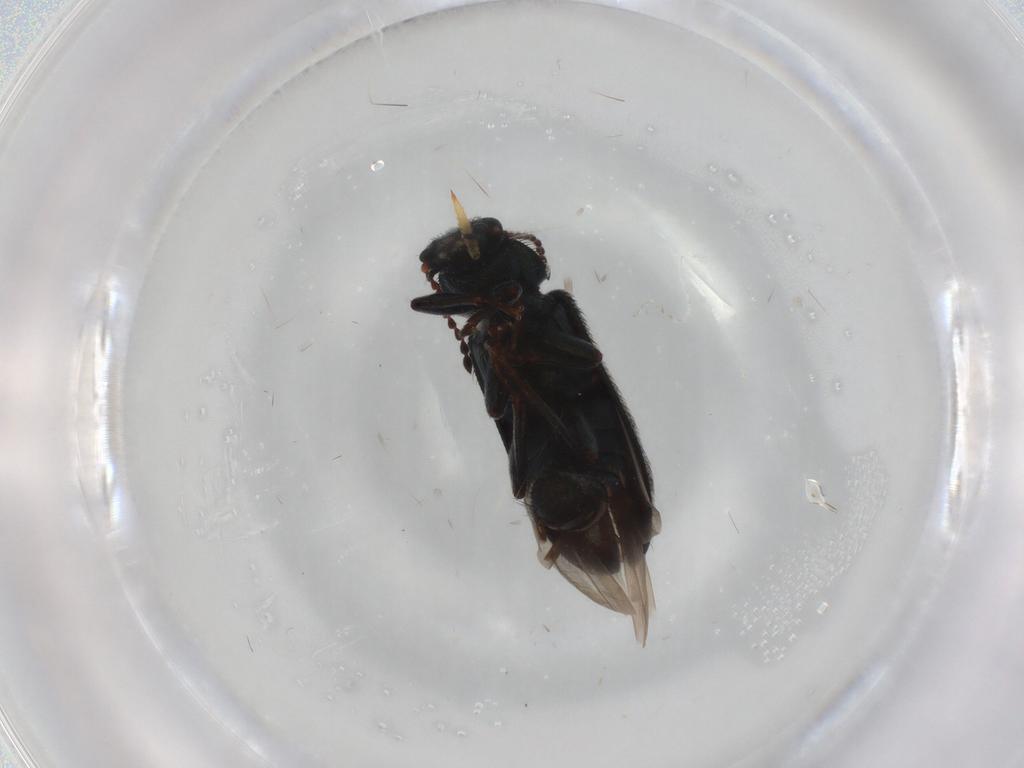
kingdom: Animalia
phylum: Arthropoda
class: Insecta
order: Coleoptera
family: Melyridae
